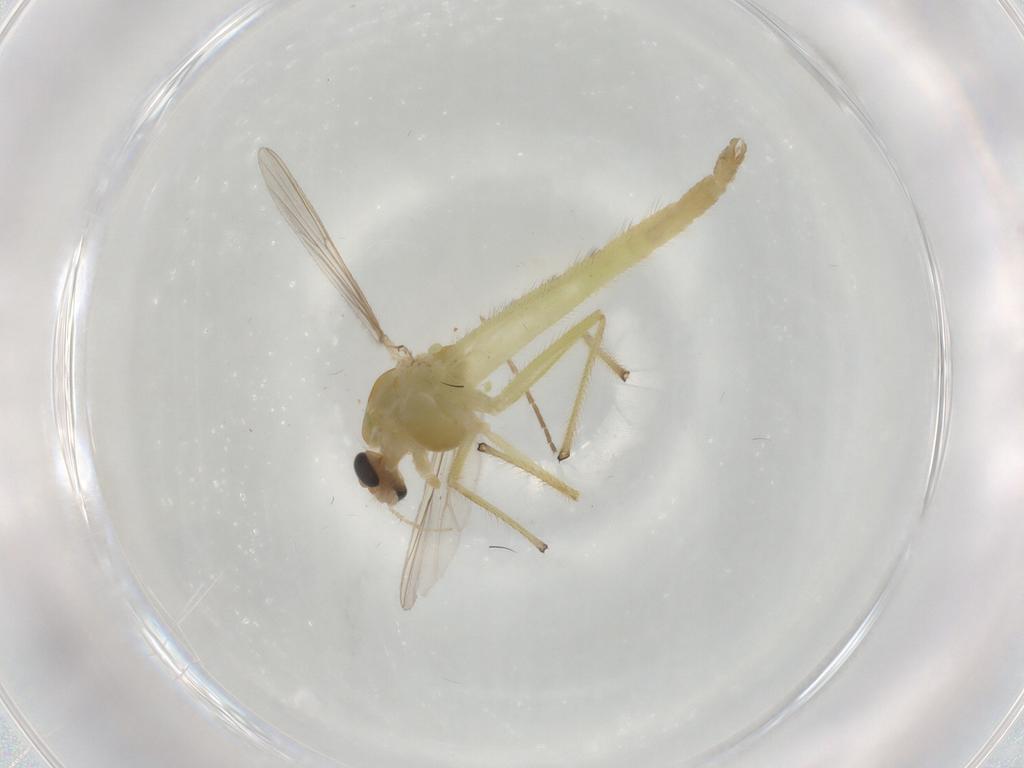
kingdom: Animalia
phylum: Arthropoda
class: Insecta
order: Diptera
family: Chironomidae
